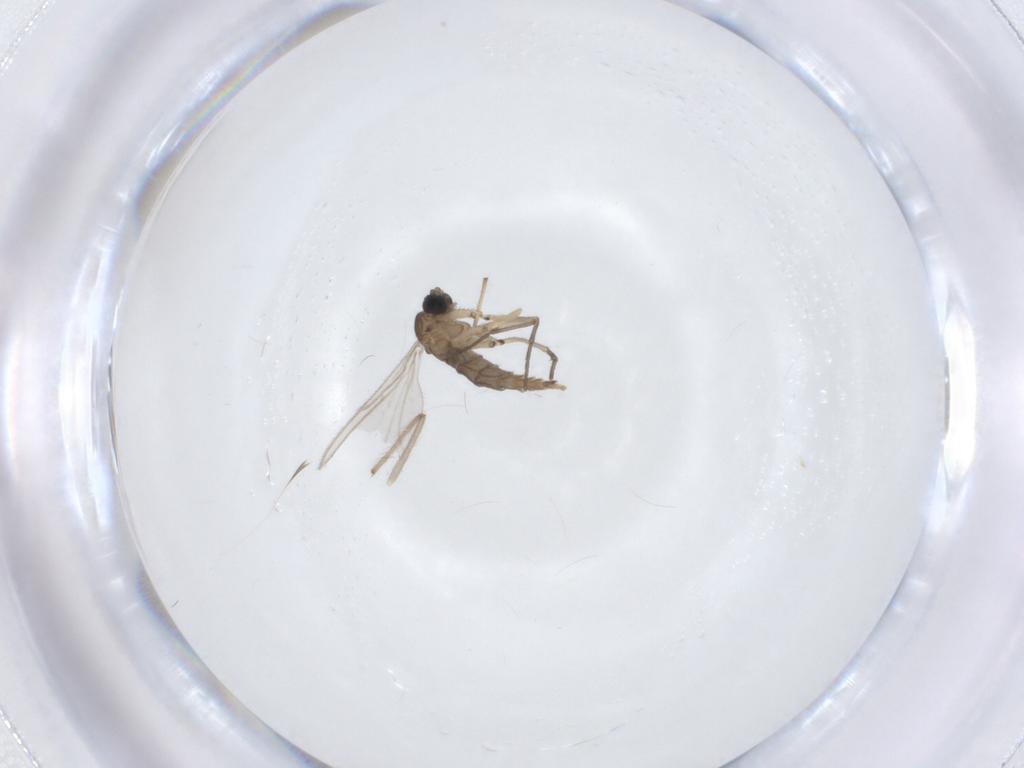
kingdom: Animalia
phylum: Arthropoda
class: Insecta
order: Diptera
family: Sciaridae
